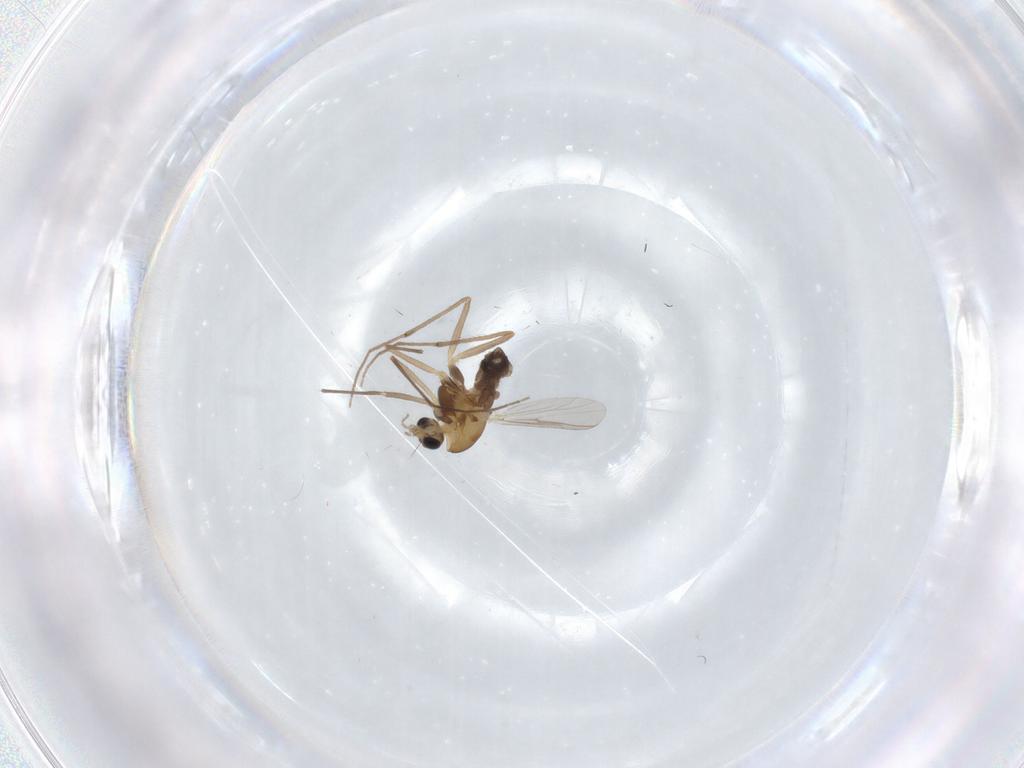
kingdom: Animalia
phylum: Arthropoda
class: Insecta
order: Diptera
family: Chironomidae
